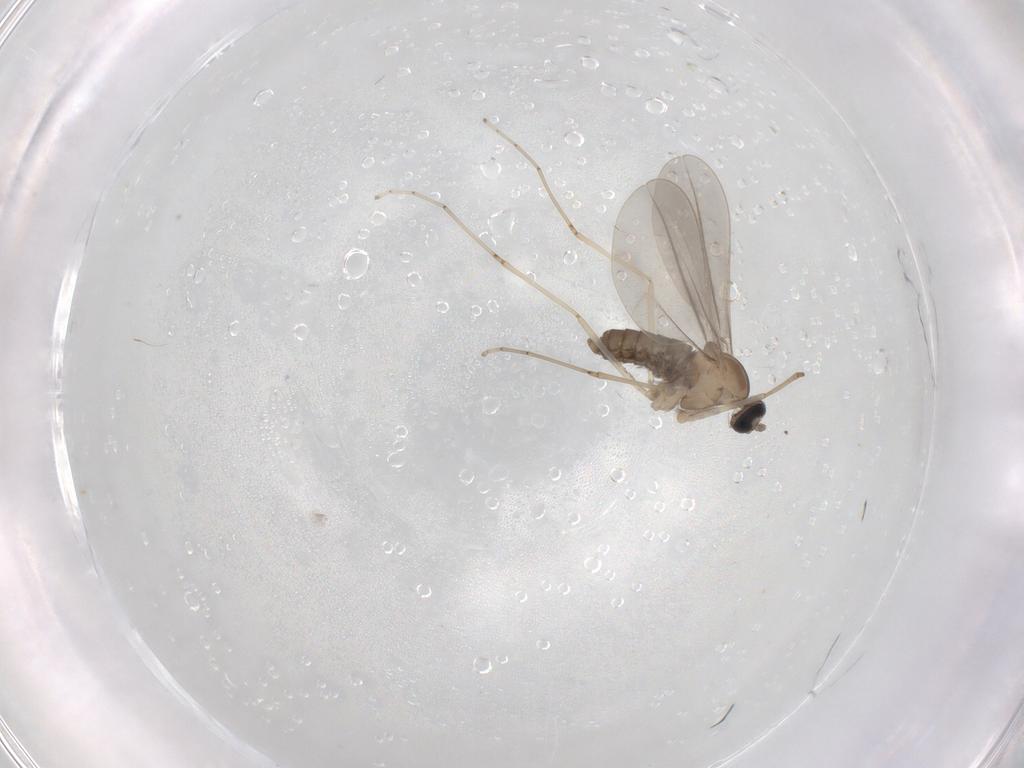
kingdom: Animalia
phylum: Arthropoda
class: Insecta
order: Diptera
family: Cecidomyiidae
